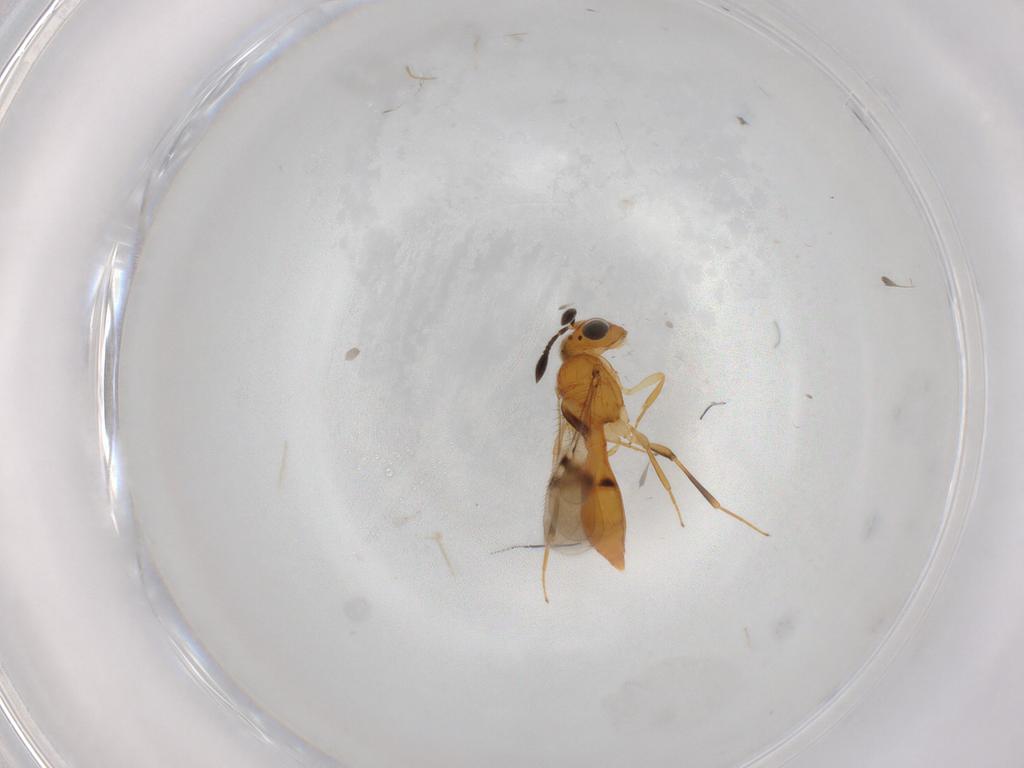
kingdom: Animalia
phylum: Arthropoda
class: Insecta
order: Hymenoptera
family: Scelionidae
